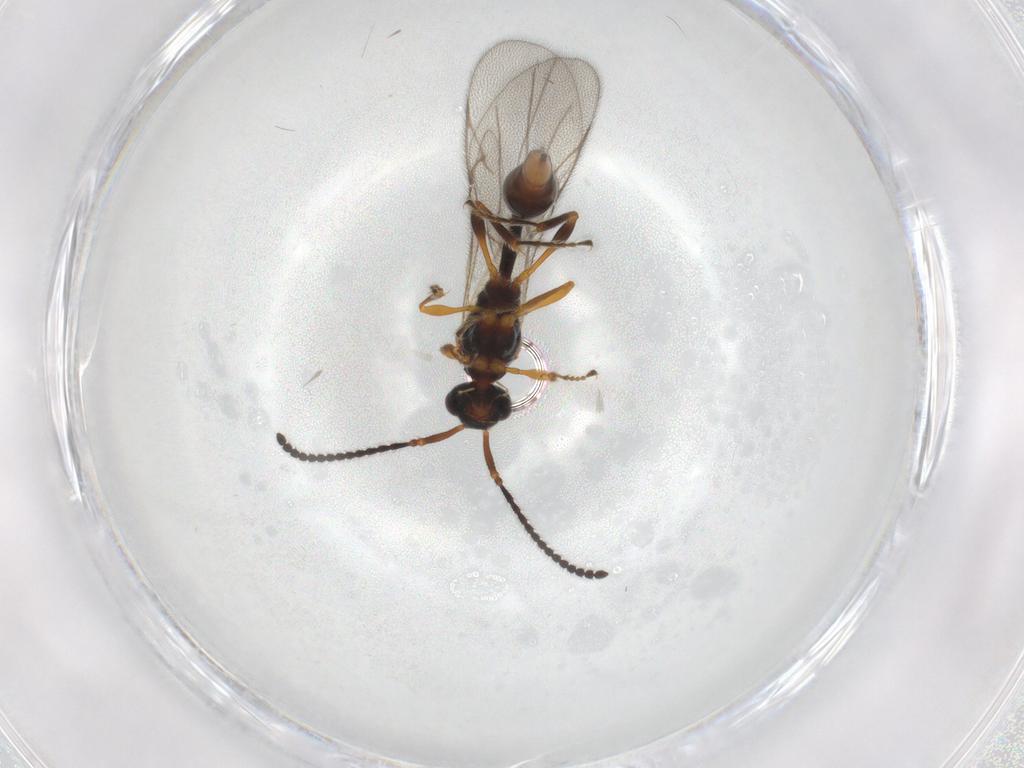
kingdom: Animalia
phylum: Arthropoda
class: Insecta
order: Hymenoptera
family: Diapriidae
